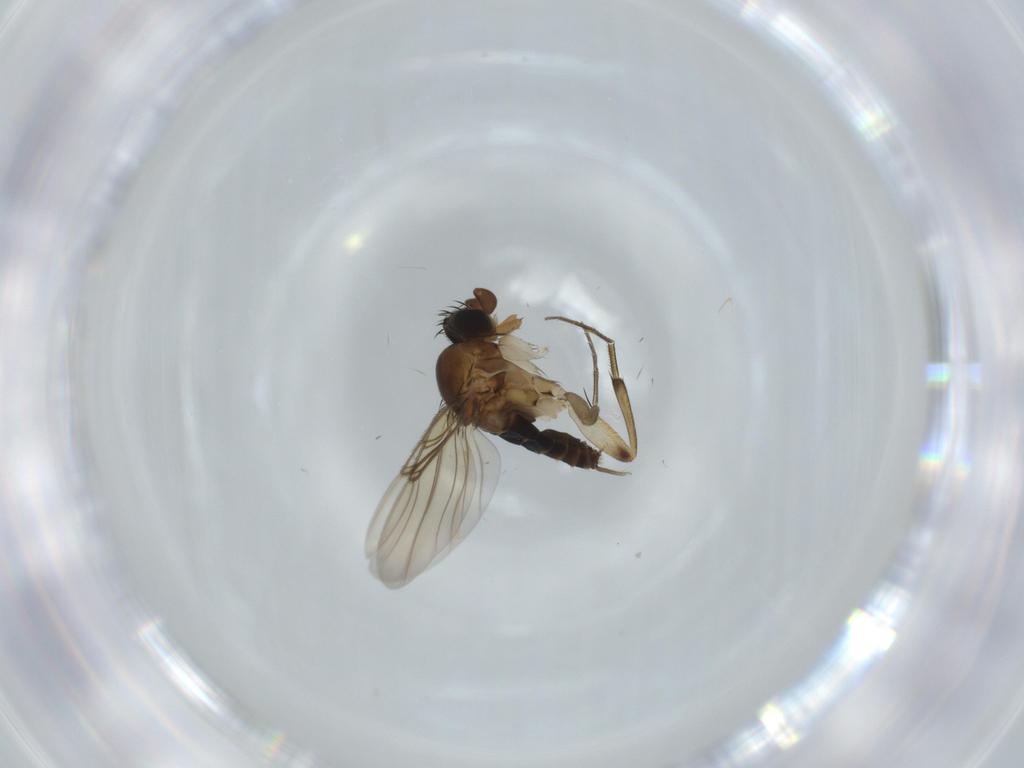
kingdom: Animalia
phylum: Arthropoda
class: Insecta
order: Diptera
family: Phoridae
